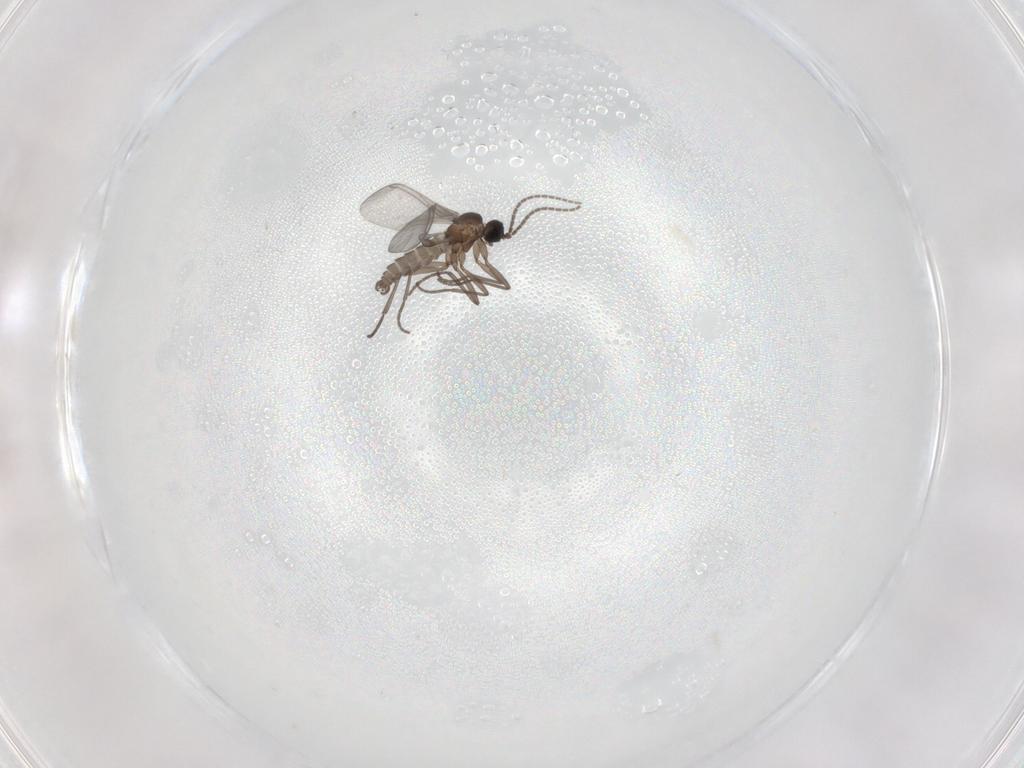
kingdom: Animalia
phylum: Arthropoda
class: Insecta
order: Diptera
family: Sciaridae
